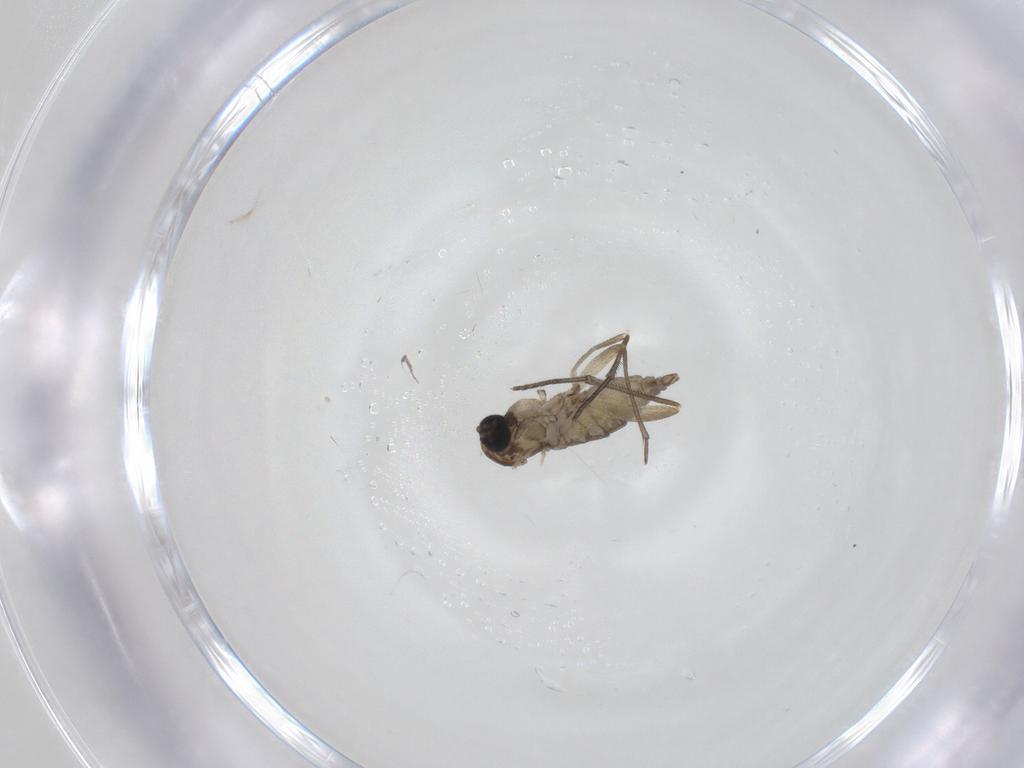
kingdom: Animalia
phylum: Arthropoda
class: Insecta
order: Diptera
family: Sciaridae
